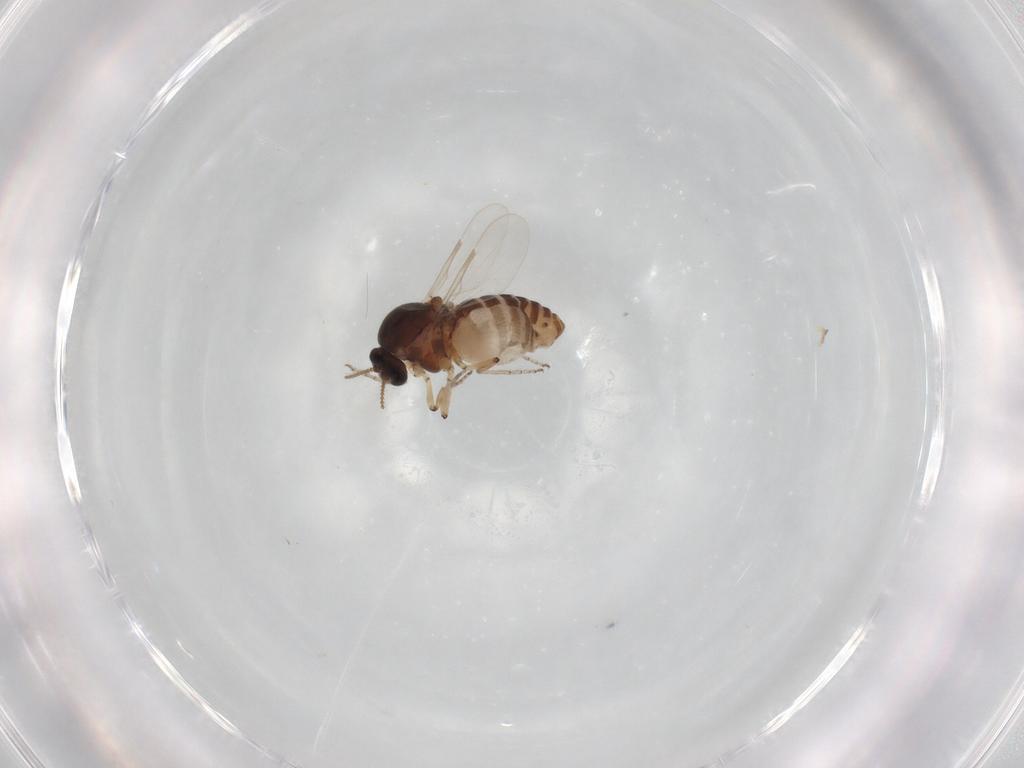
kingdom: Animalia
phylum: Arthropoda
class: Insecta
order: Diptera
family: Ceratopogonidae
